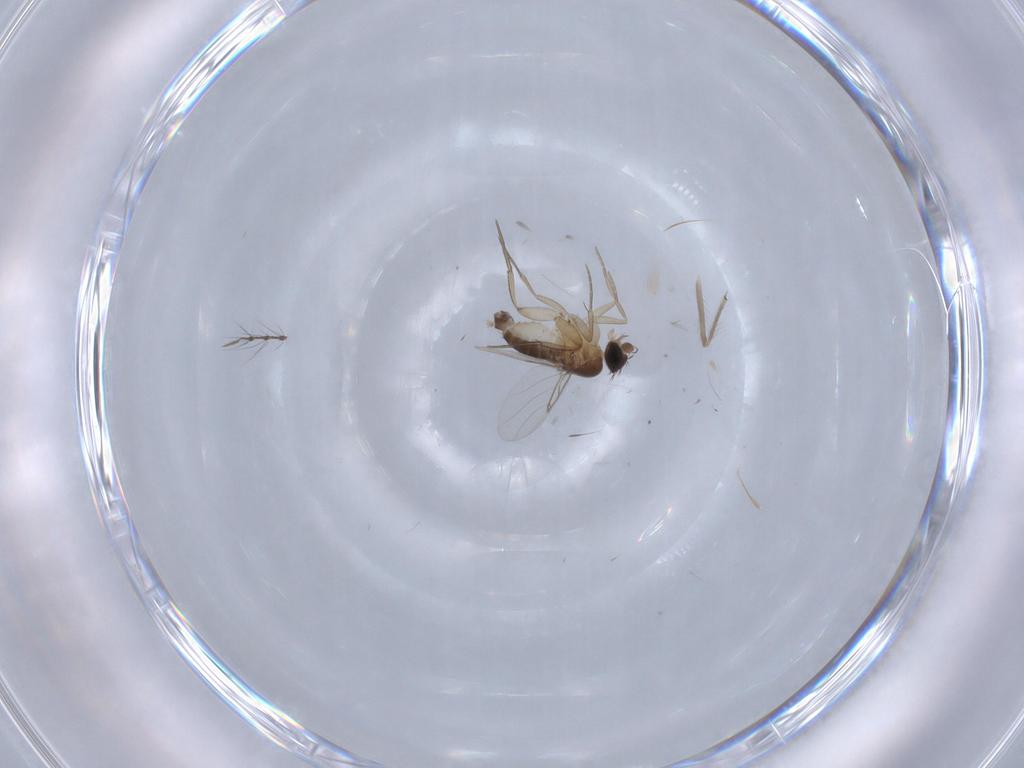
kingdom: Animalia
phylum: Arthropoda
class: Insecta
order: Diptera
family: Phoridae
